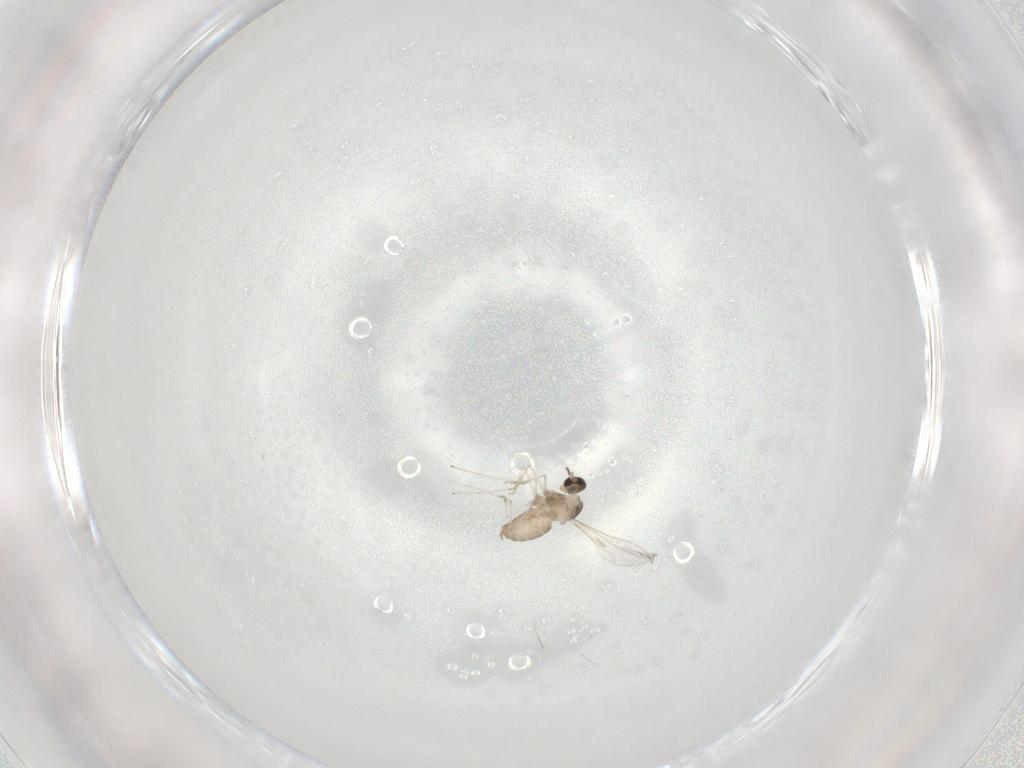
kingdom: Animalia
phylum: Arthropoda
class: Insecta
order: Diptera
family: Cecidomyiidae
